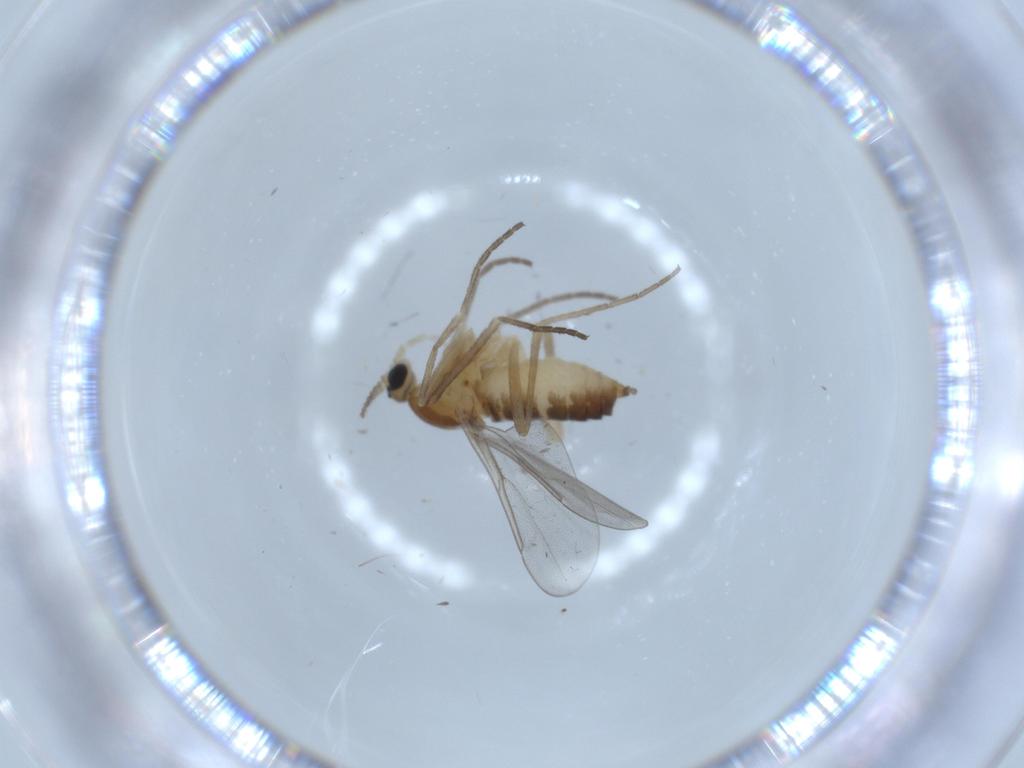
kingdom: Animalia
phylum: Arthropoda
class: Insecta
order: Diptera
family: Cecidomyiidae
